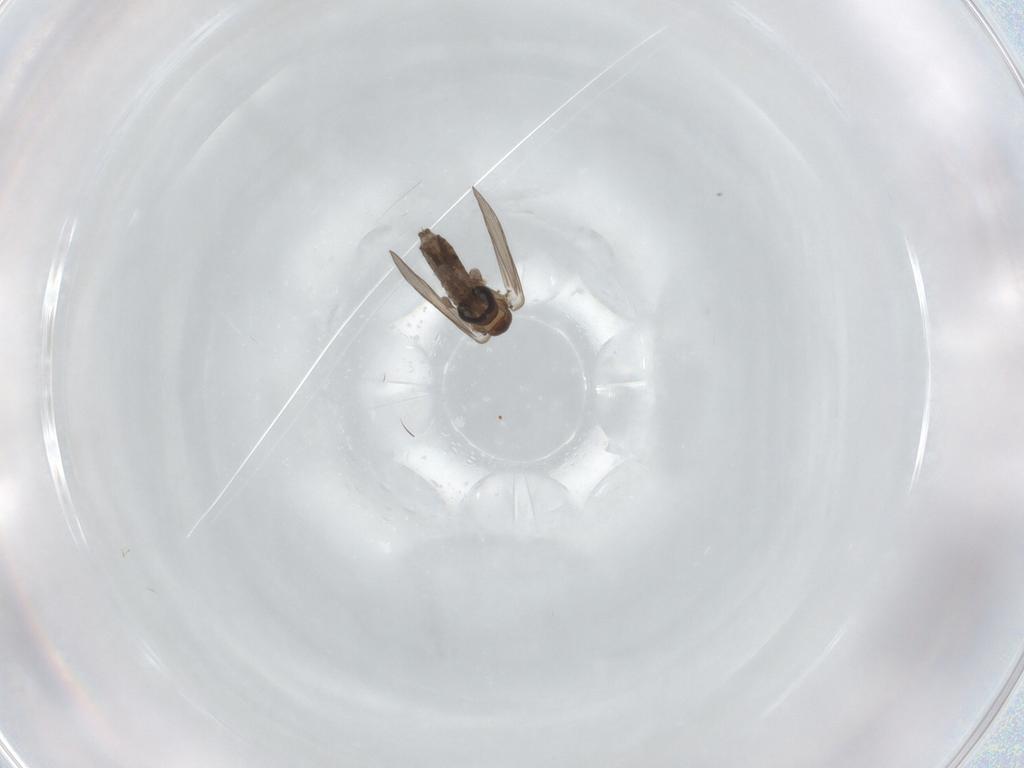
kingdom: Animalia
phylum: Arthropoda
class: Insecta
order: Diptera
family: Psychodidae
